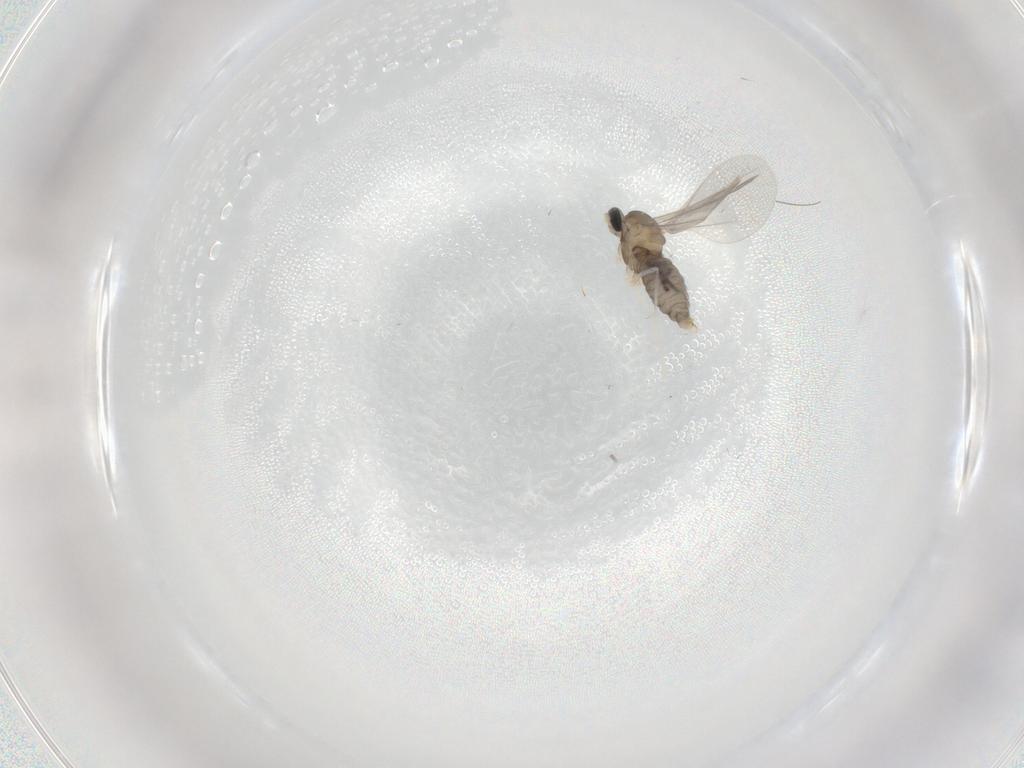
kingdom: Animalia
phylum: Arthropoda
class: Insecta
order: Diptera
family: Cecidomyiidae
